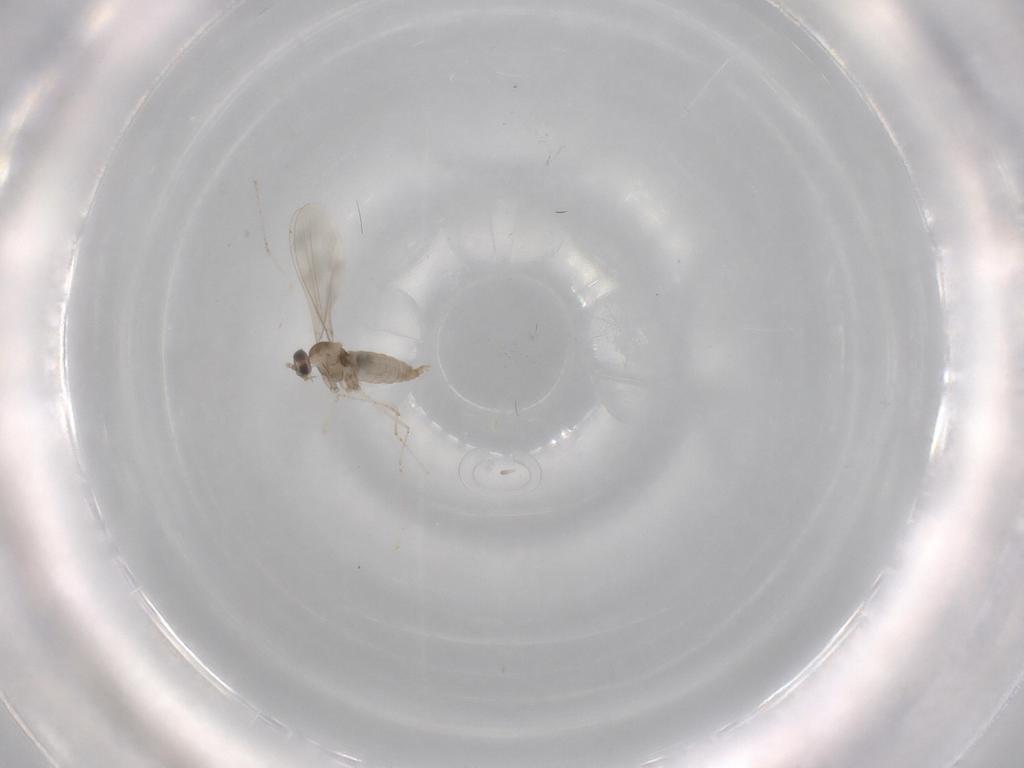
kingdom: Animalia
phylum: Arthropoda
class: Insecta
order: Diptera
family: Cecidomyiidae
